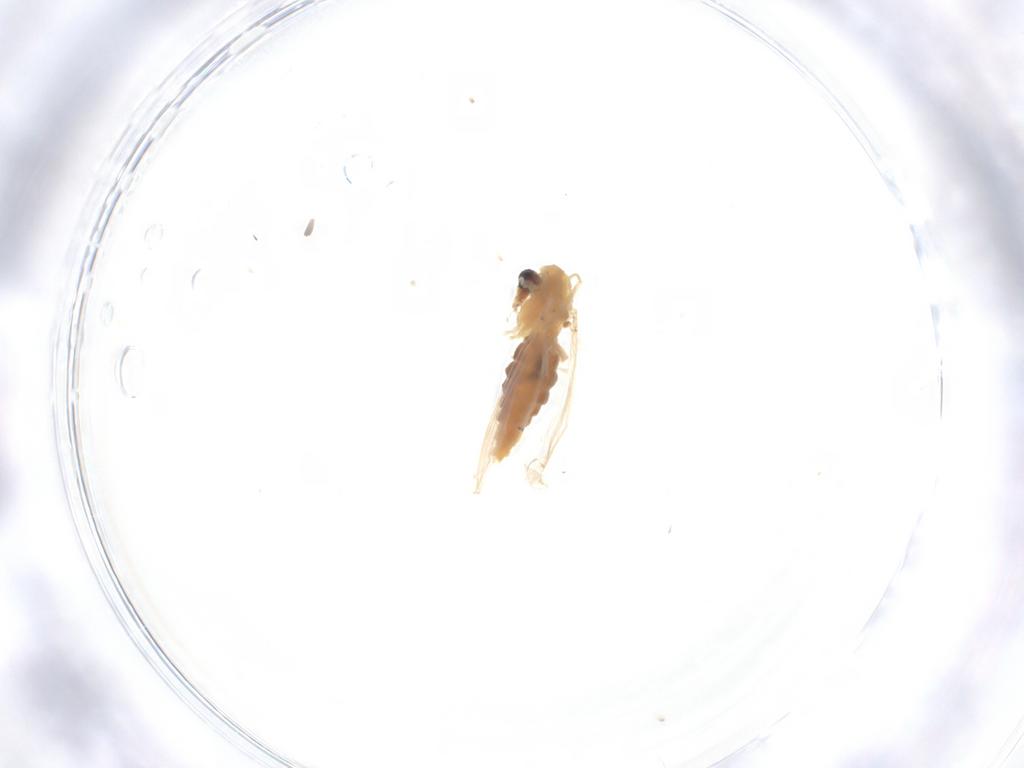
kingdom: Animalia
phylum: Arthropoda
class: Insecta
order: Diptera
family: Chironomidae
